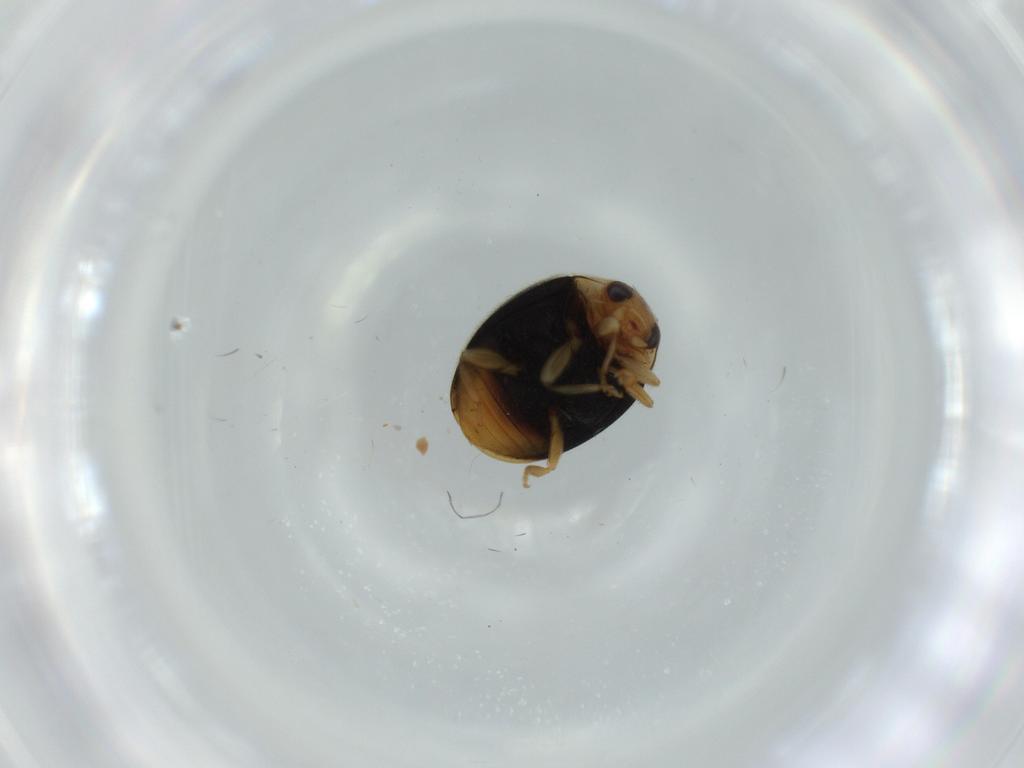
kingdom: Animalia
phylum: Arthropoda
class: Insecta
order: Coleoptera
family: Coccinellidae
